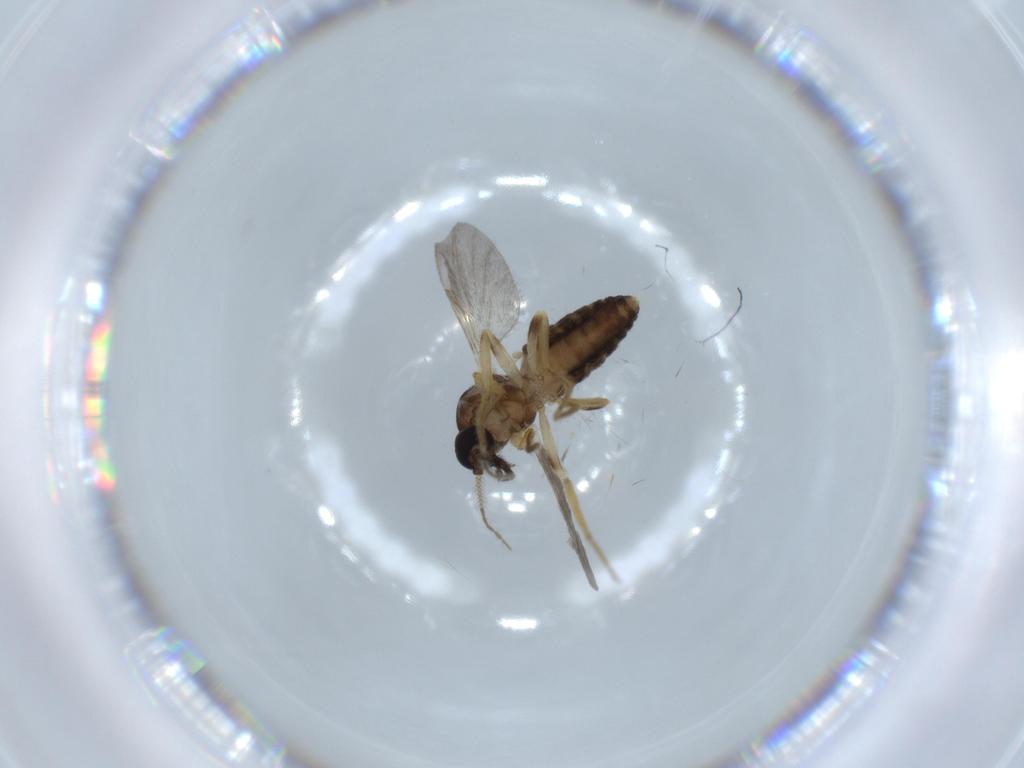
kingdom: Animalia
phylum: Arthropoda
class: Insecta
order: Diptera
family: Ceratopogonidae
